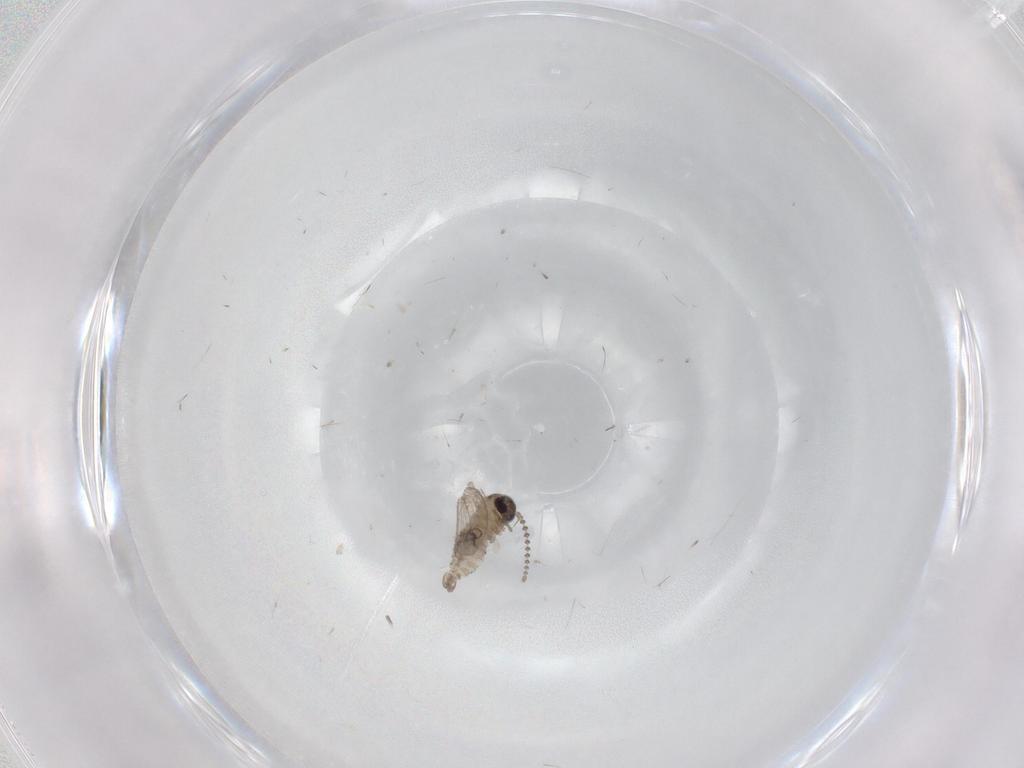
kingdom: Animalia
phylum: Arthropoda
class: Insecta
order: Diptera
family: Psychodidae
